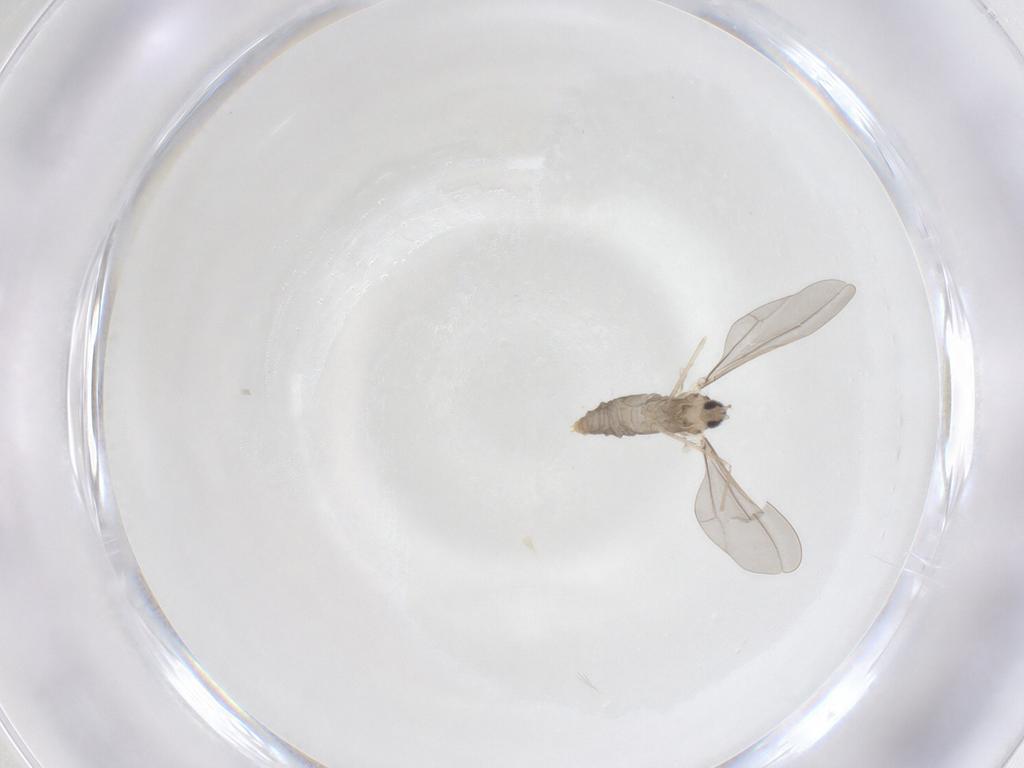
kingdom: Animalia
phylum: Arthropoda
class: Insecta
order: Diptera
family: Cecidomyiidae
